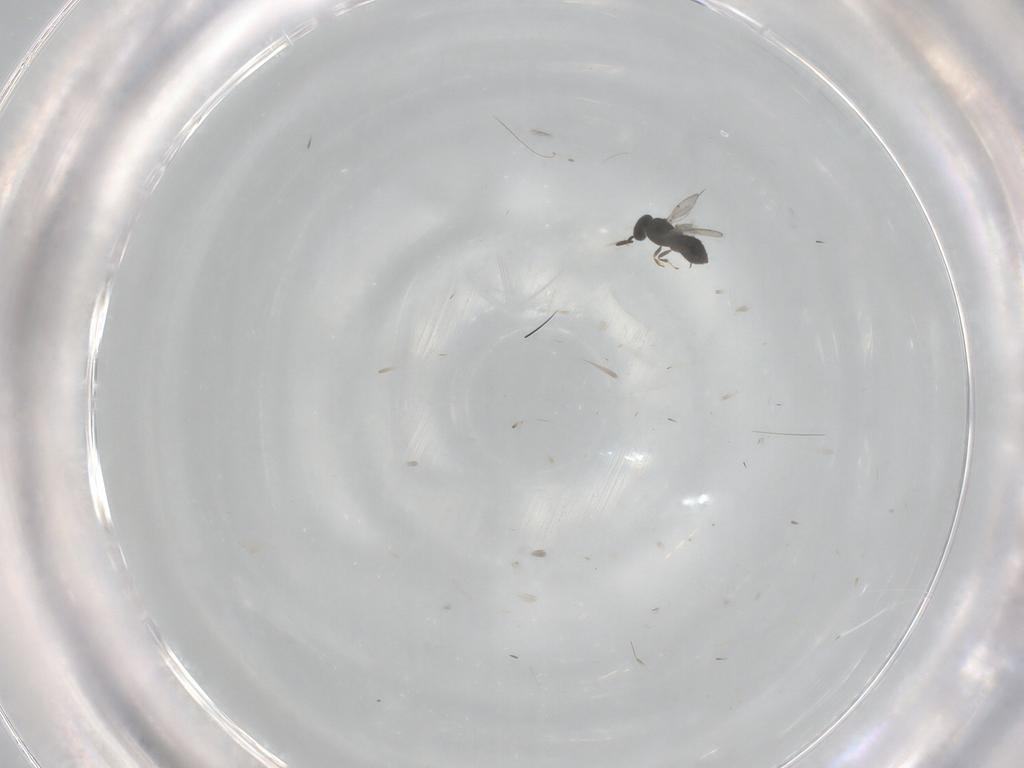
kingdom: Animalia
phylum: Arthropoda
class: Insecta
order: Hymenoptera
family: Scelionidae
